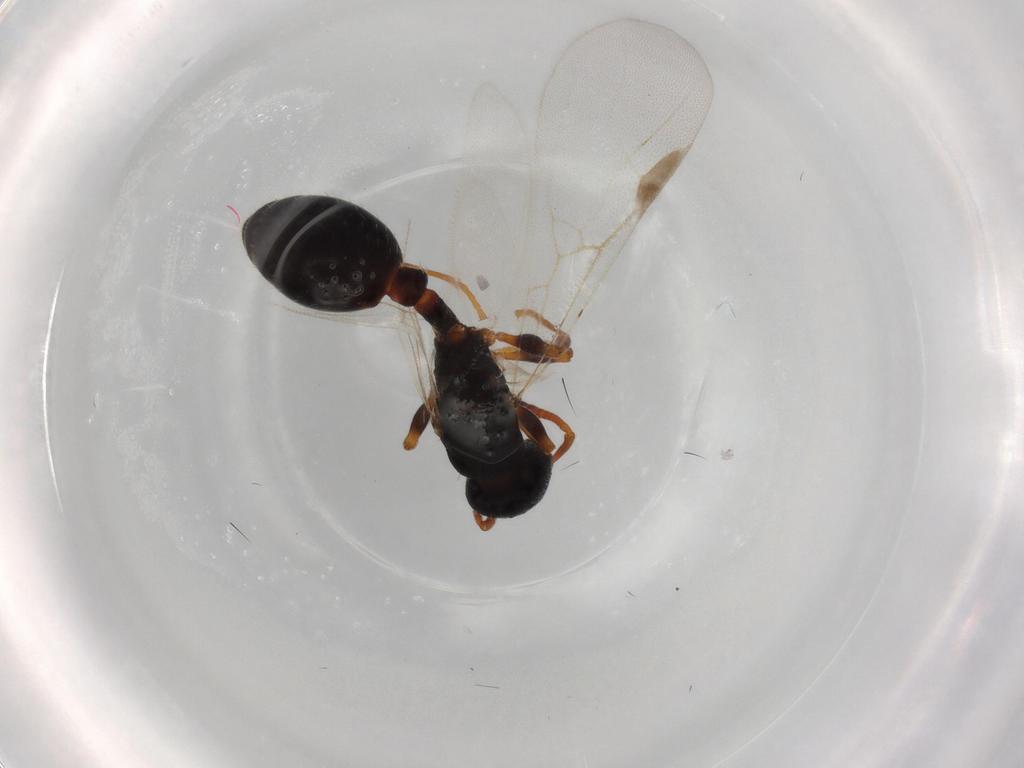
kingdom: Animalia
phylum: Arthropoda
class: Insecta
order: Hymenoptera
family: Formicidae
